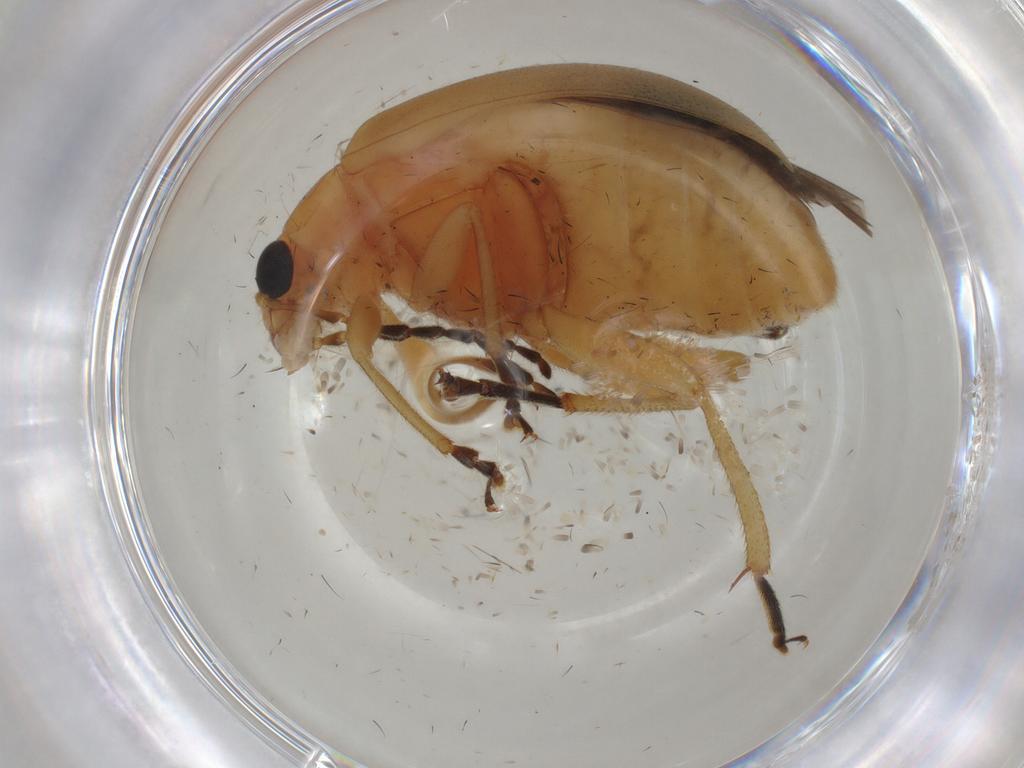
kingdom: Animalia
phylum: Arthropoda
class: Insecta
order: Coleoptera
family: Chrysomelidae
